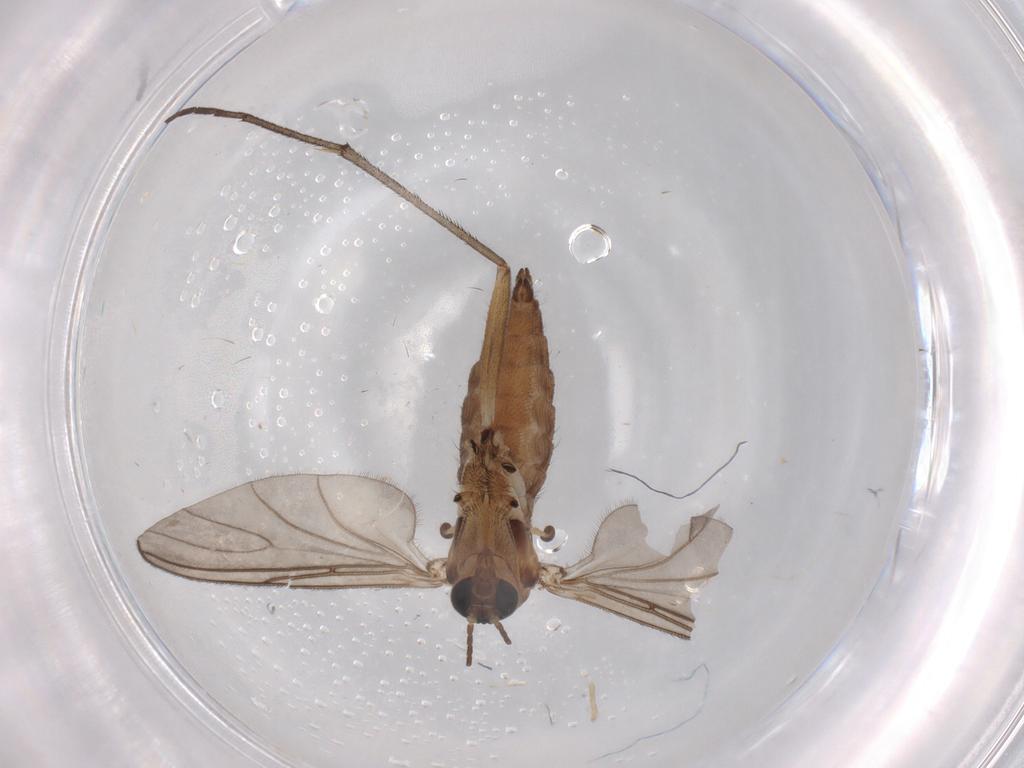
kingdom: Animalia
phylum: Arthropoda
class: Insecta
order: Diptera
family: Sciaridae
